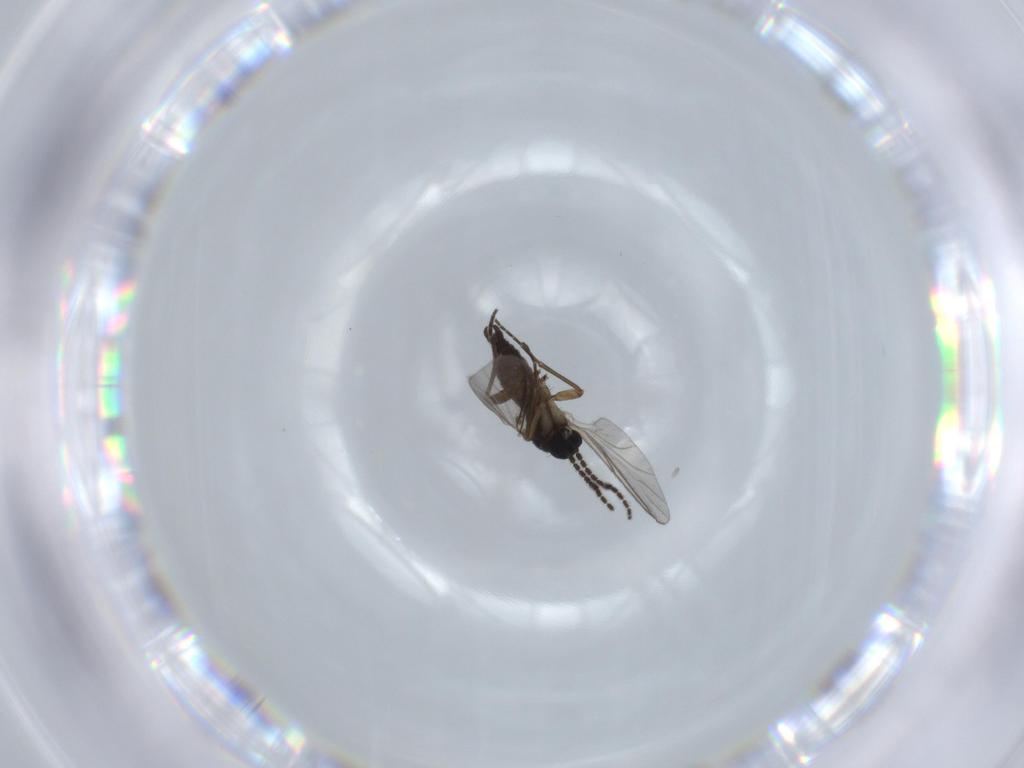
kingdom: Animalia
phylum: Arthropoda
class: Insecta
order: Diptera
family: Sciaridae
